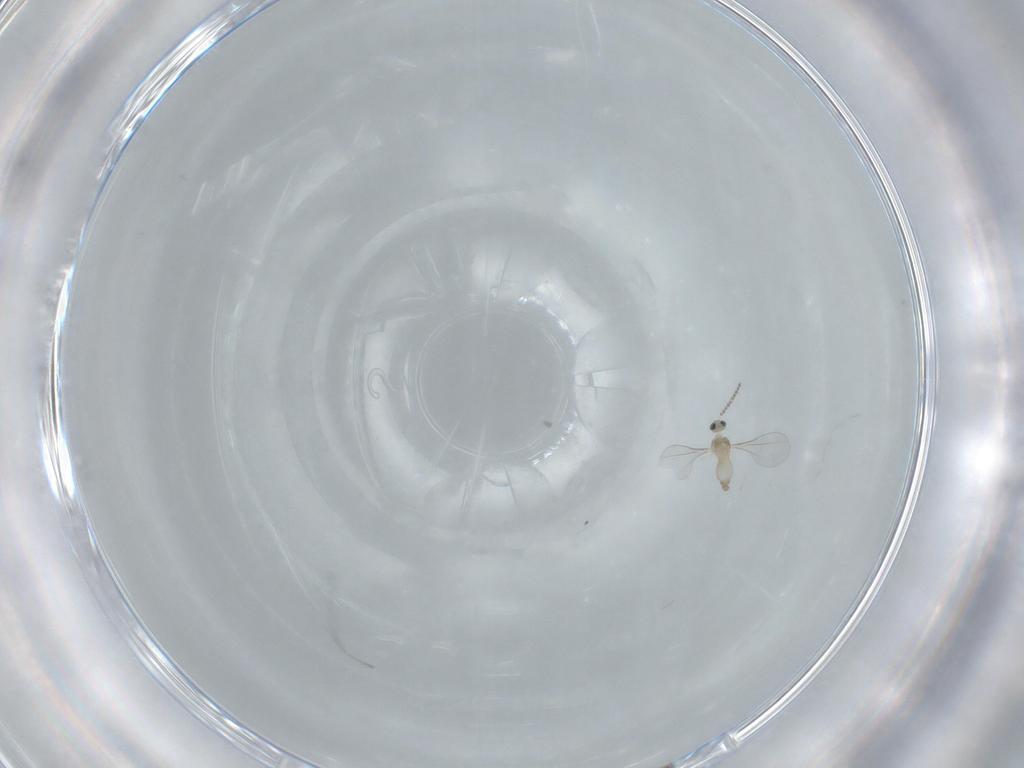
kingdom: Animalia
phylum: Arthropoda
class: Insecta
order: Diptera
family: Cecidomyiidae
